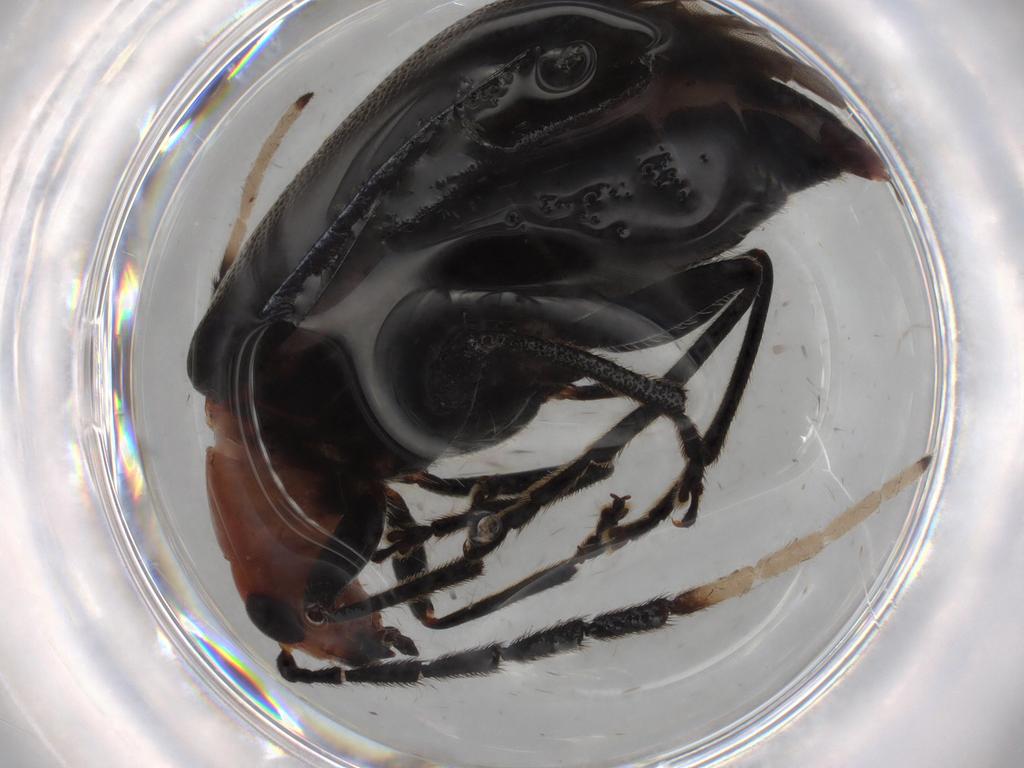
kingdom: Animalia
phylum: Arthropoda
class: Insecta
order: Coleoptera
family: Chrysomelidae
